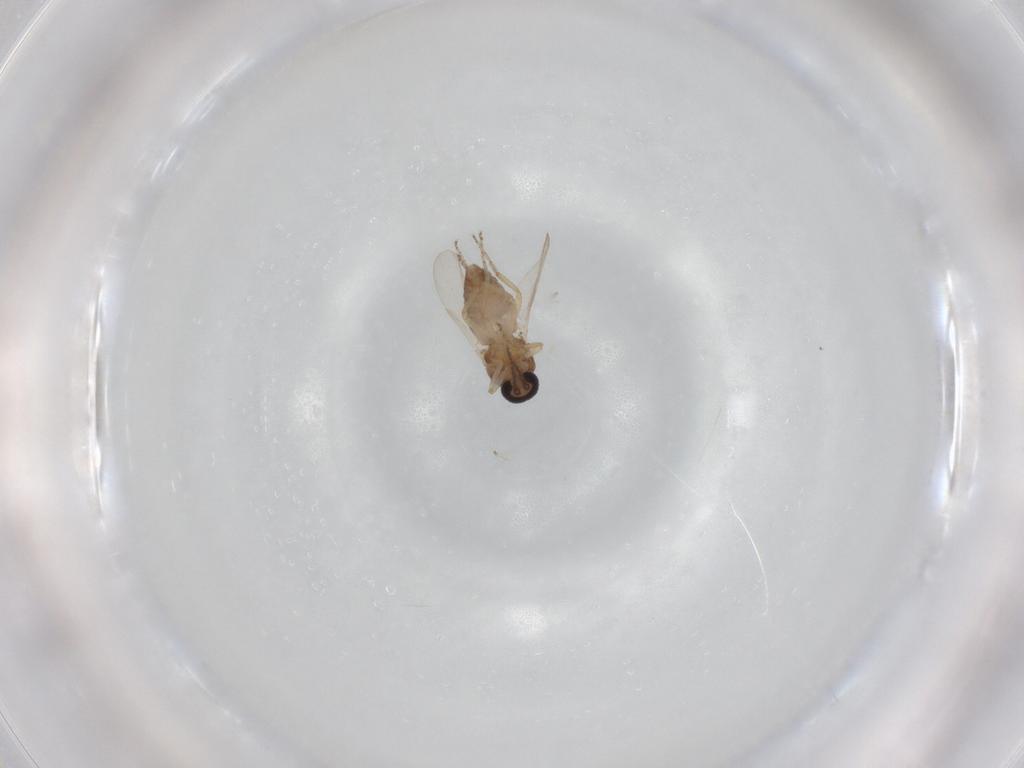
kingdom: Animalia
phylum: Arthropoda
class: Insecta
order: Diptera
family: Ceratopogonidae
